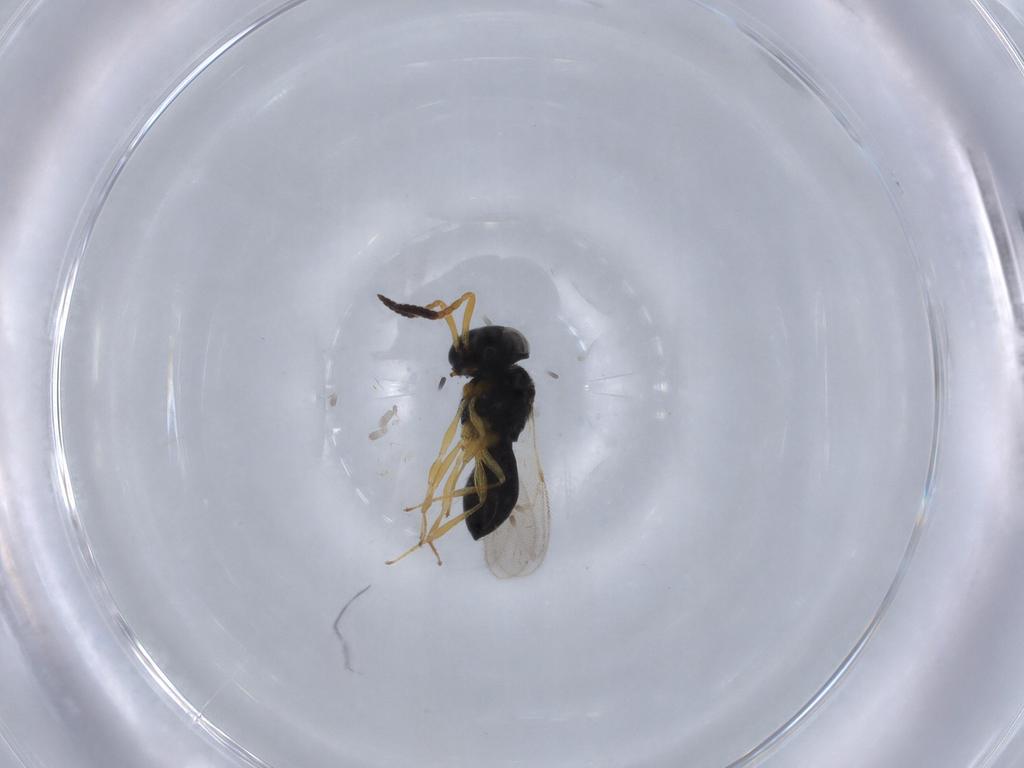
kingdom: Animalia
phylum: Arthropoda
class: Insecta
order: Hymenoptera
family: Scelionidae
